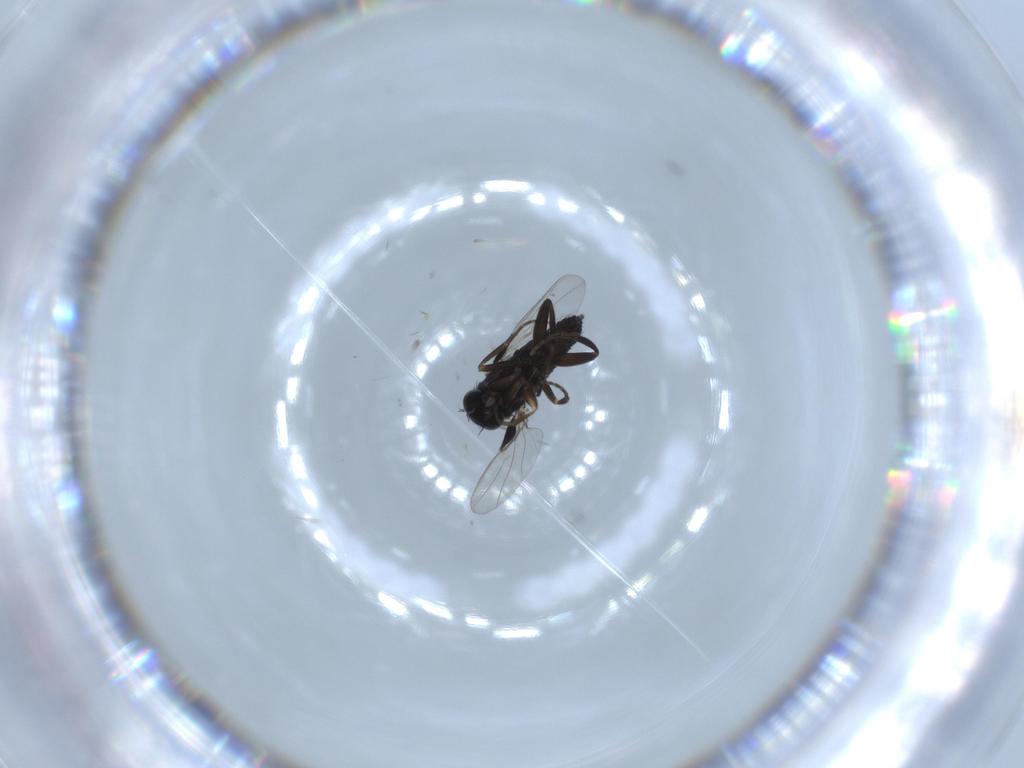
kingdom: Animalia
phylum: Arthropoda
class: Insecta
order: Diptera
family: Phoridae
